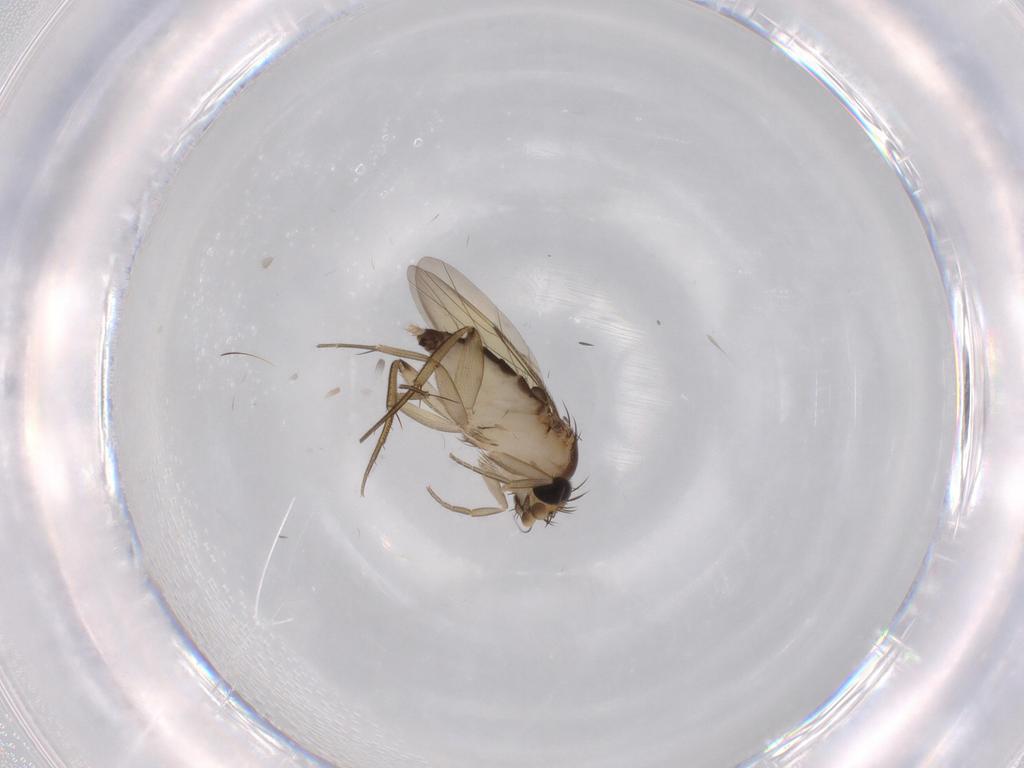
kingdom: Animalia
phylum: Arthropoda
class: Insecta
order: Diptera
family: Phoridae
